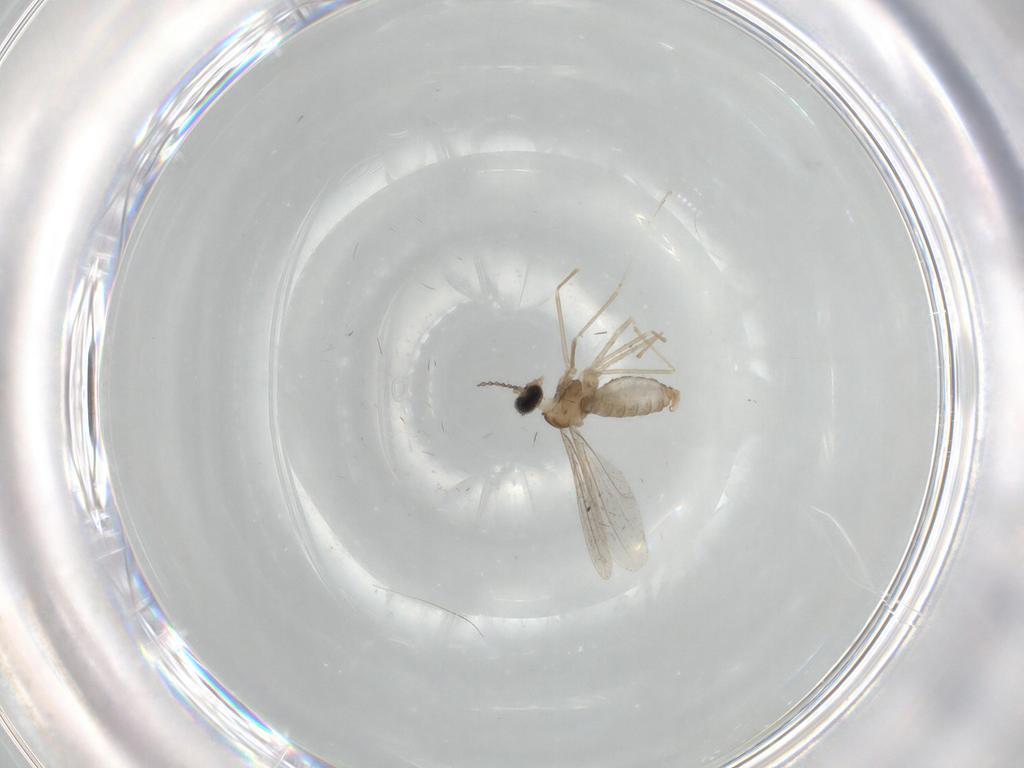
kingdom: Animalia
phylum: Arthropoda
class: Insecta
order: Diptera
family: Cecidomyiidae
